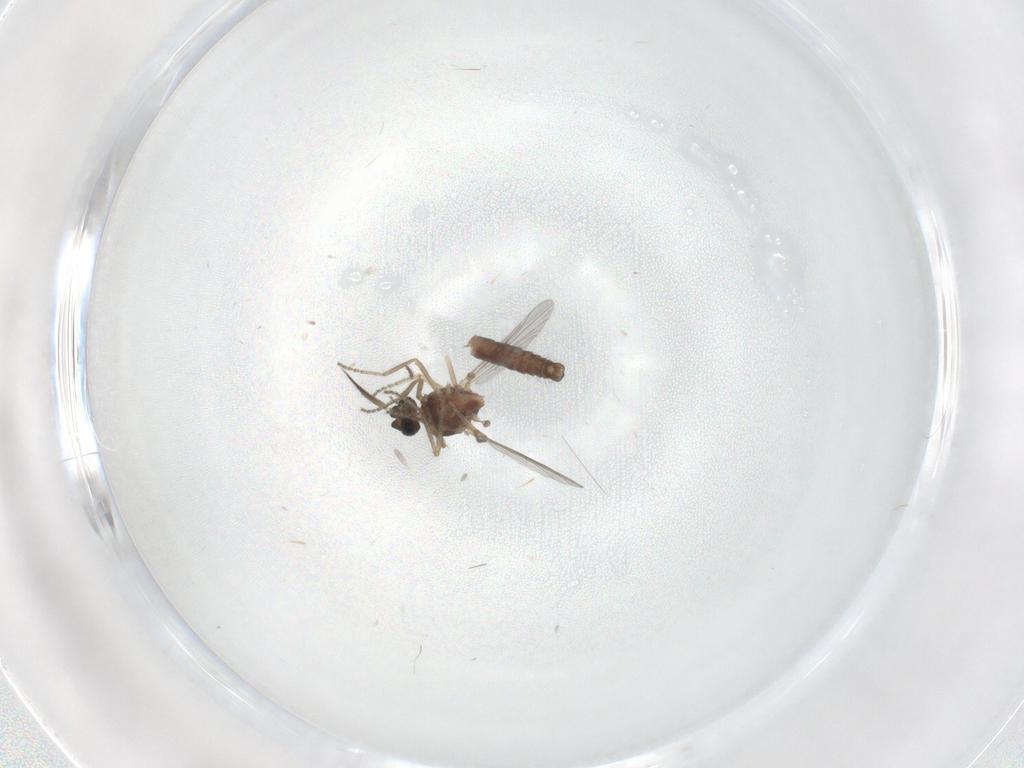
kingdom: Animalia
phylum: Arthropoda
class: Insecta
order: Diptera
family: Ceratopogonidae
